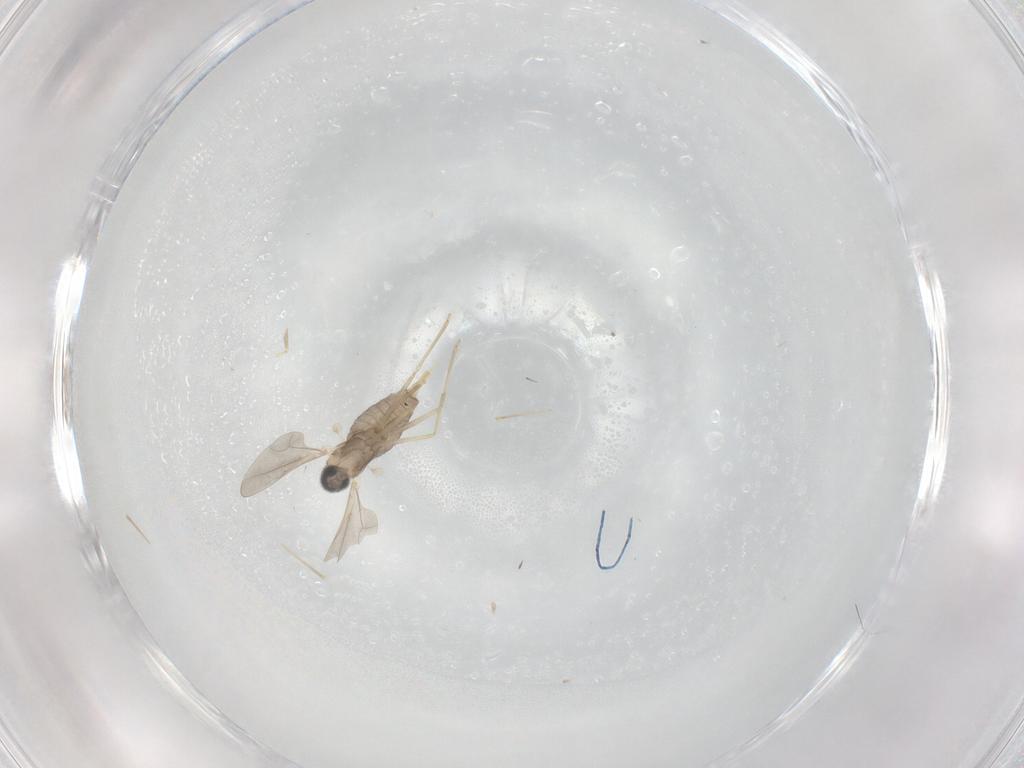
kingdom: Animalia
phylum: Arthropoda
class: Insecta
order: Diptera
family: Cecidomyiidae
